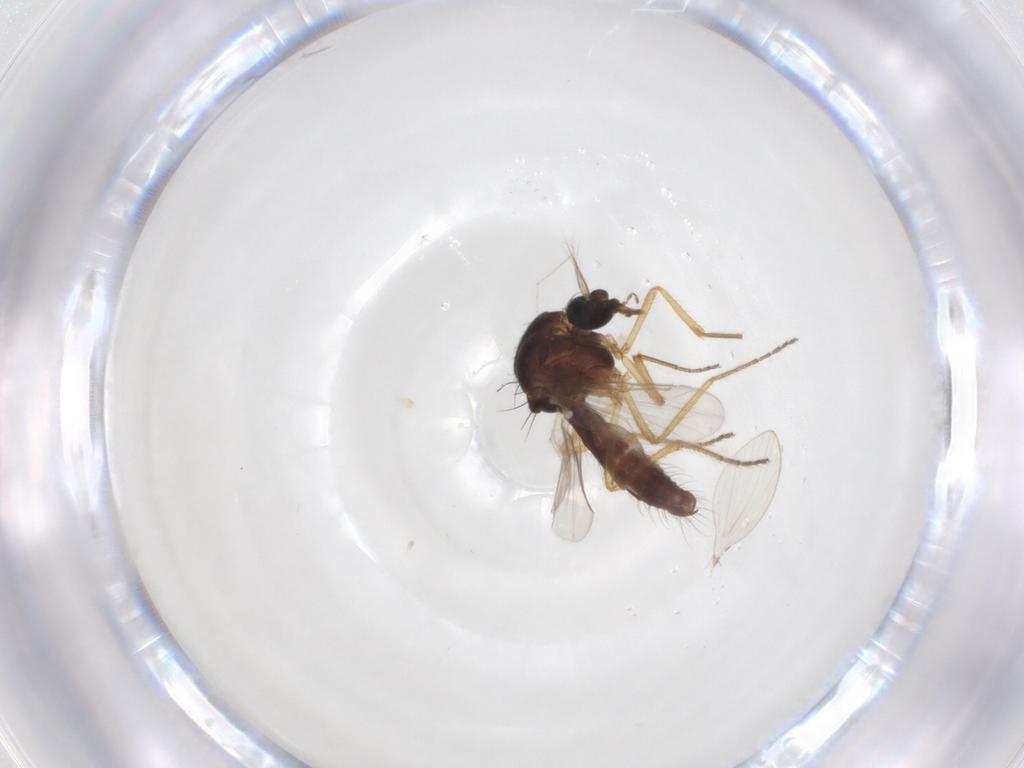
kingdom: Animalia
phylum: Arthropoda
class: Insecta
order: Diptera
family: Ceratopogonidae
